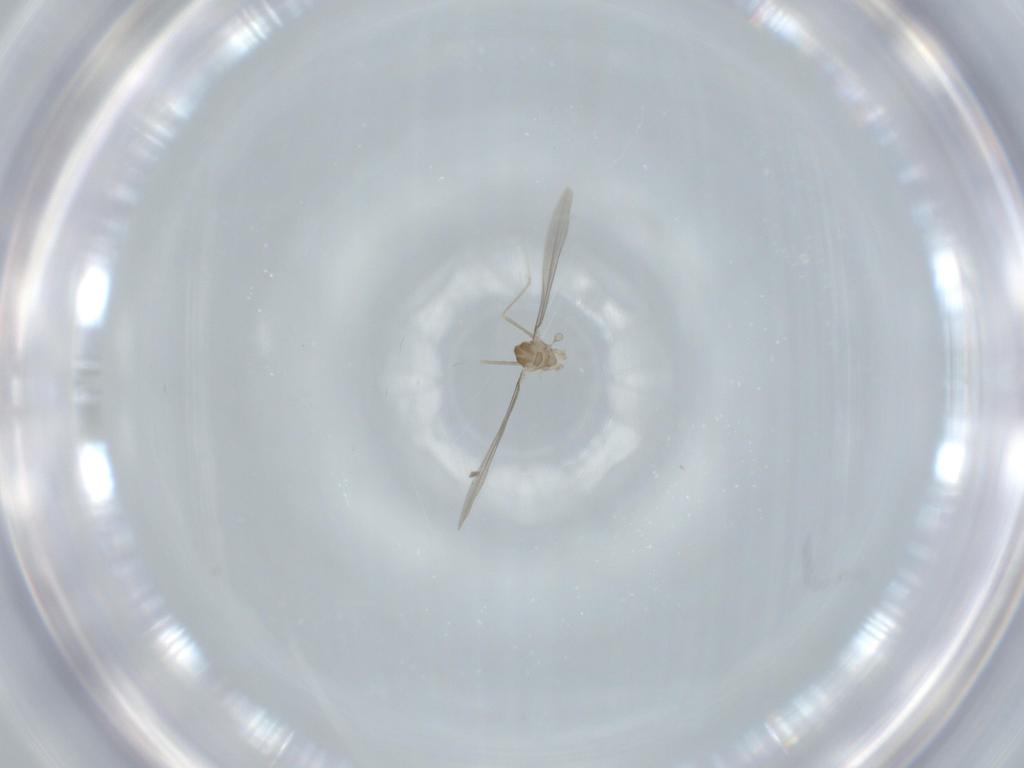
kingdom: Animalia
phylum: Arthropoda
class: Insecta
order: Diptera
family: Cecidomyiidae
